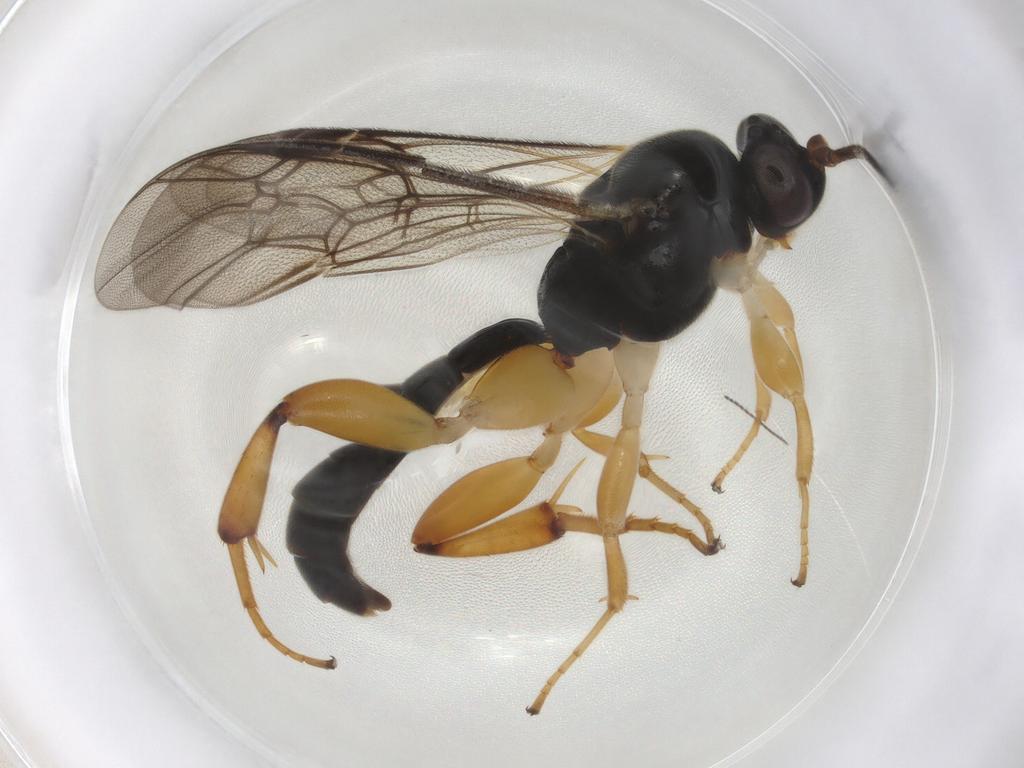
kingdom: Animalia
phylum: Arthropoda
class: Insecta
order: Hymenoptera
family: Ichneumonidae
